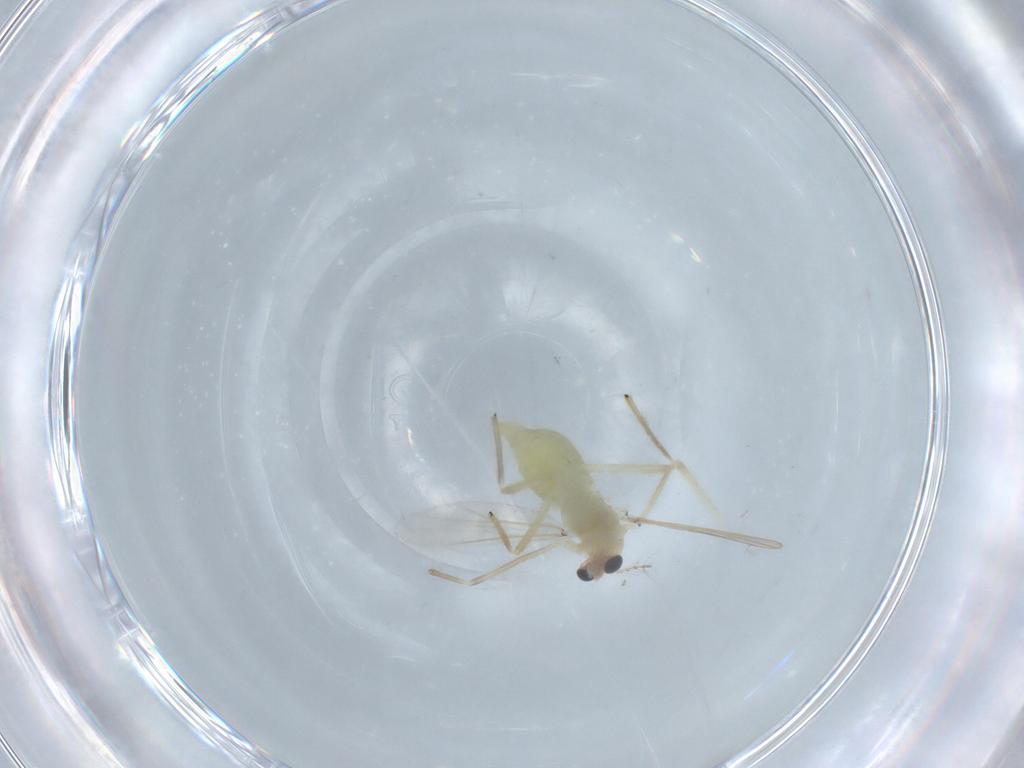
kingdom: Animalia
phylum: Arthropoda
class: Insecta
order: Diptera
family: Chironomidae
